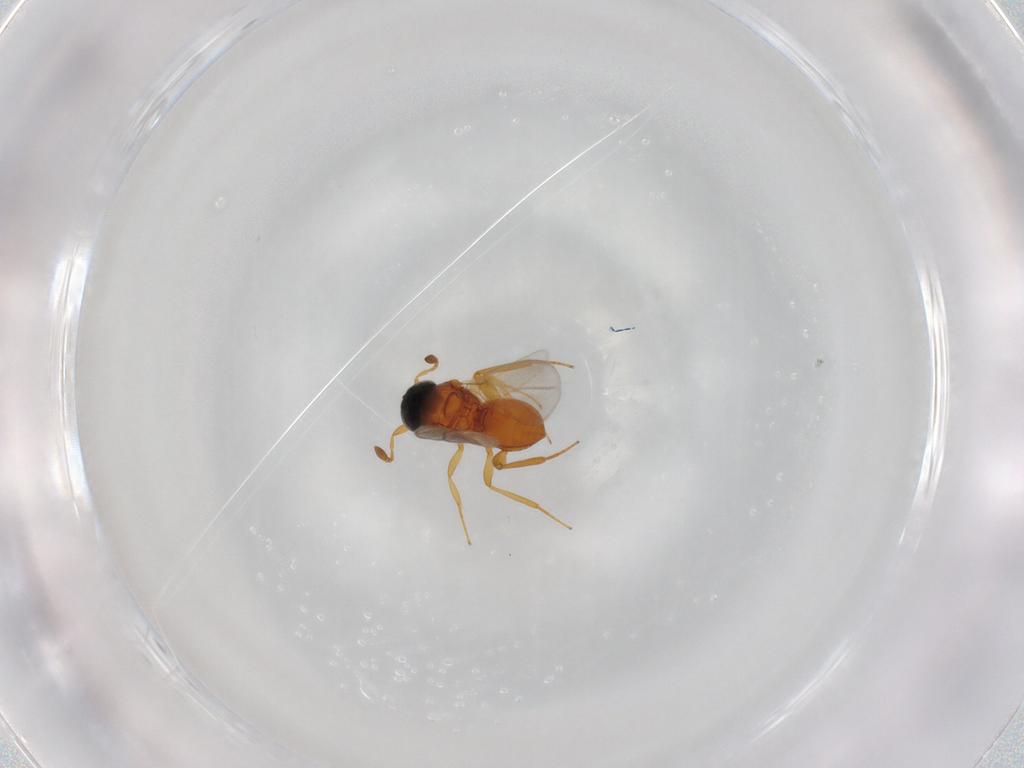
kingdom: Animalia
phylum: Arthropoda
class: Insecta
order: Hymenoptera
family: Platygastridae
